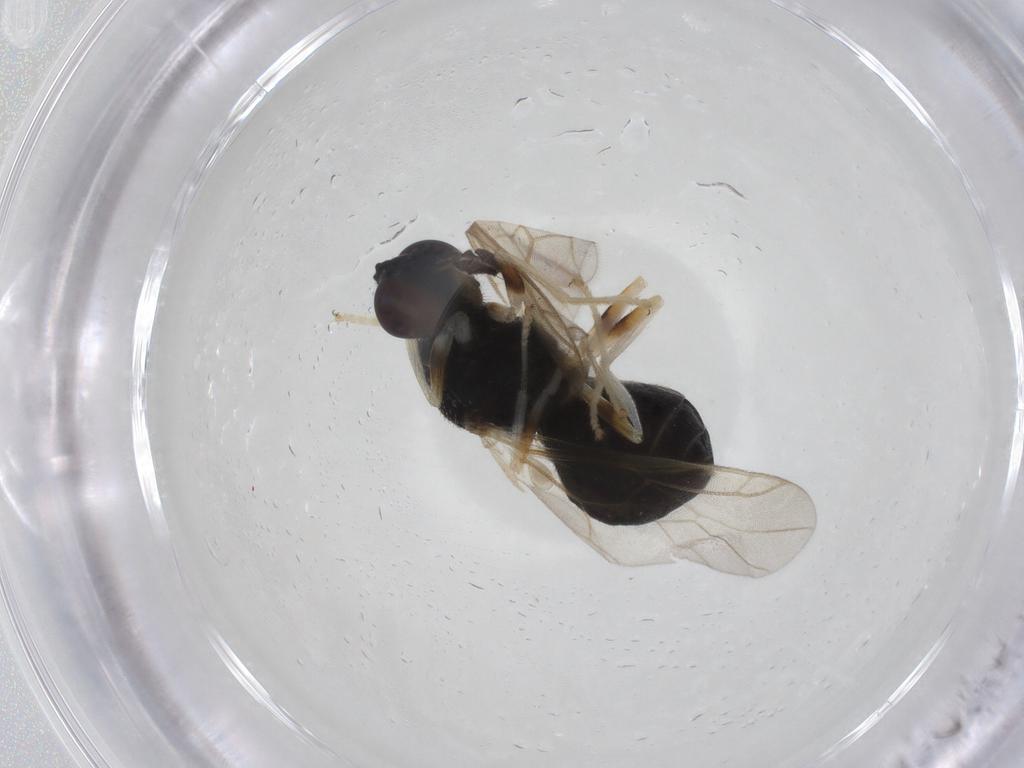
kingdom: Animalia
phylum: Arthropoda
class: Insecta
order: Diptera
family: Stratiomyidae
